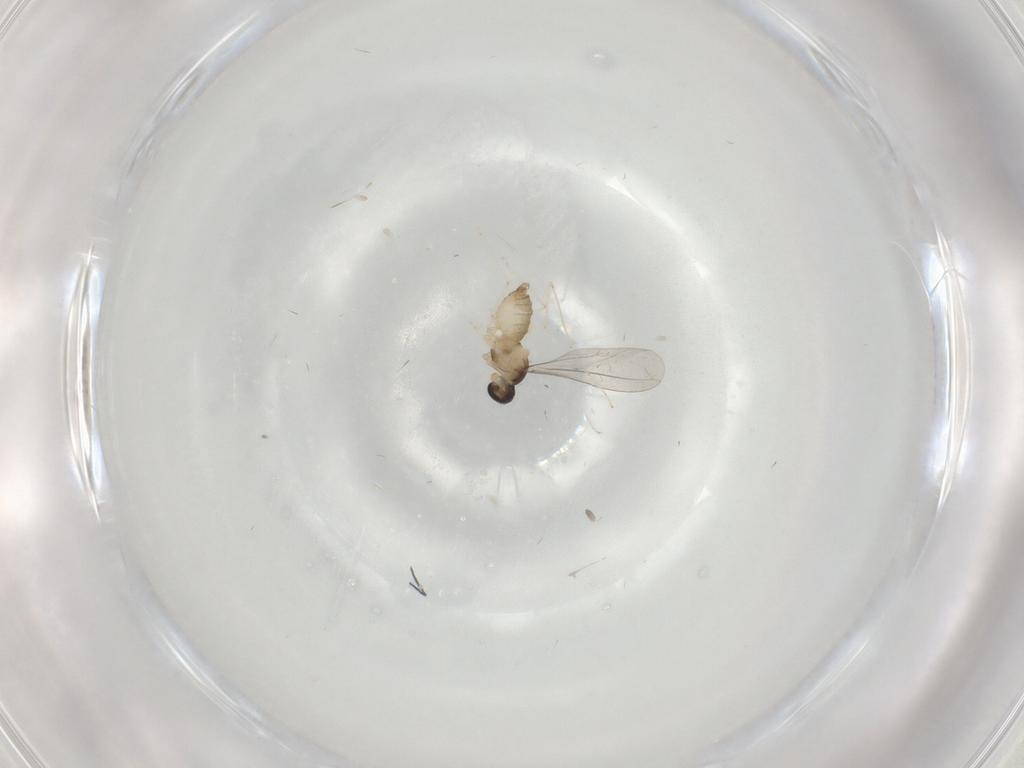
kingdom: Animalia
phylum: Arthropoda
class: Insecta
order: Diptera
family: Cecidomyiidae
